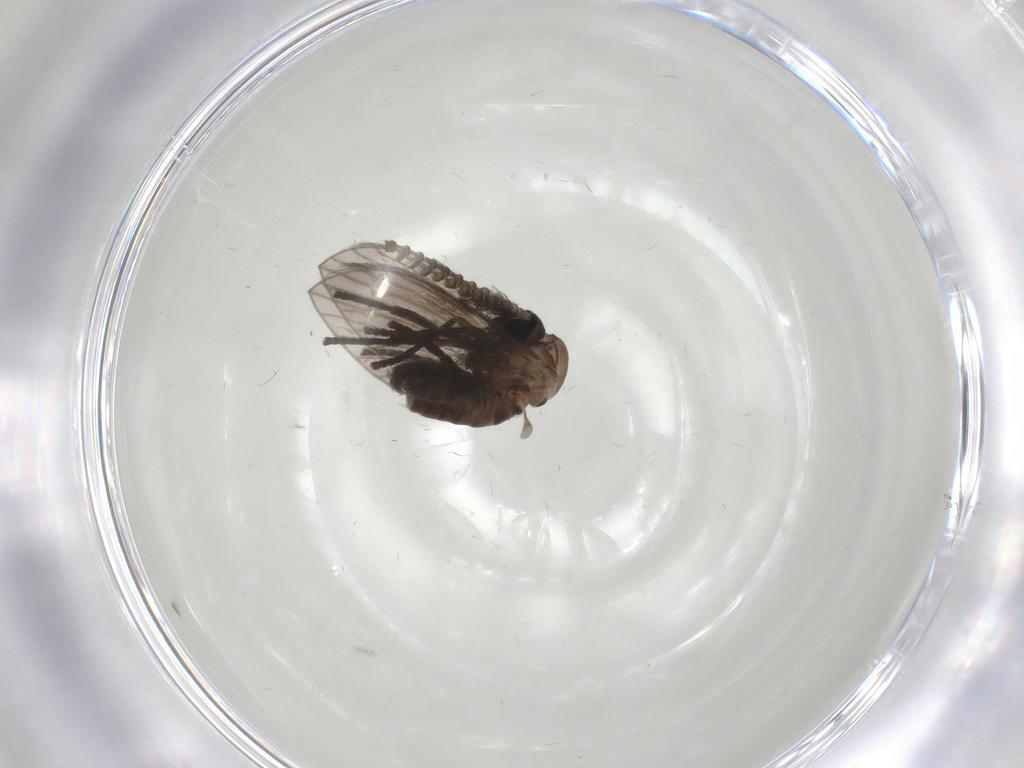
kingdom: Animalia
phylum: Arthropoda
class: Insecta
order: Diptera
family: Psychodidae
